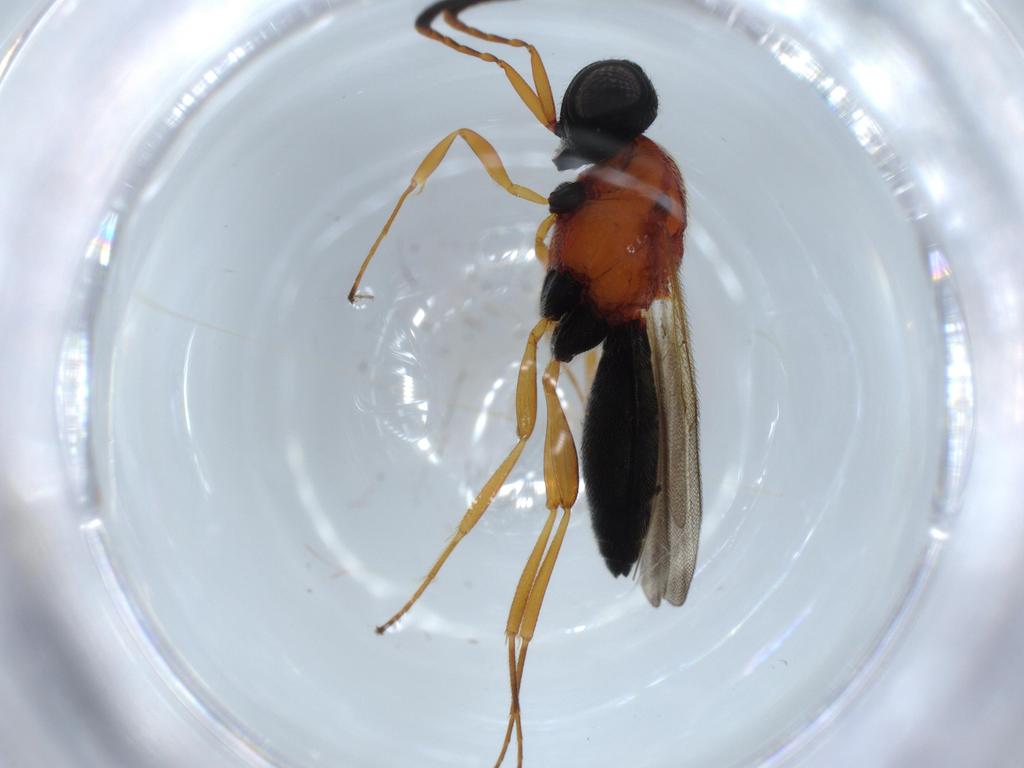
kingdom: Animalia
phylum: Arthropoda
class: Insecta
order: Hymenoptera
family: Scelionidae
